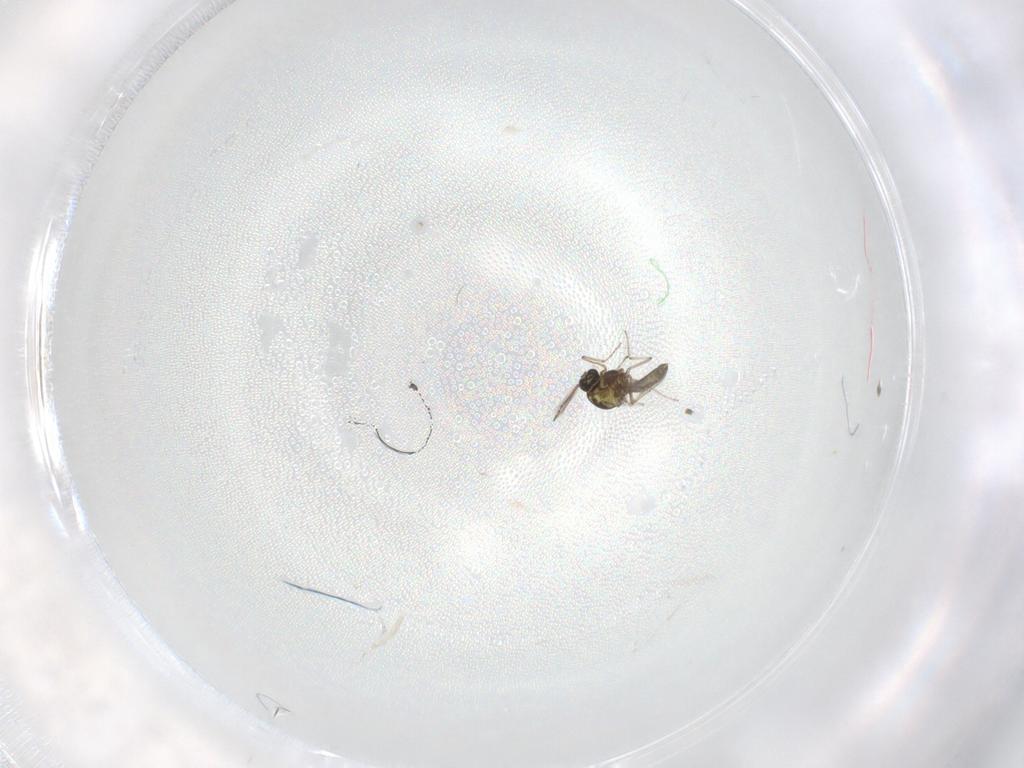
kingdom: Animalia
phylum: Arthropoda
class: Insecta
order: Diptera
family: Ceratopogonidae
